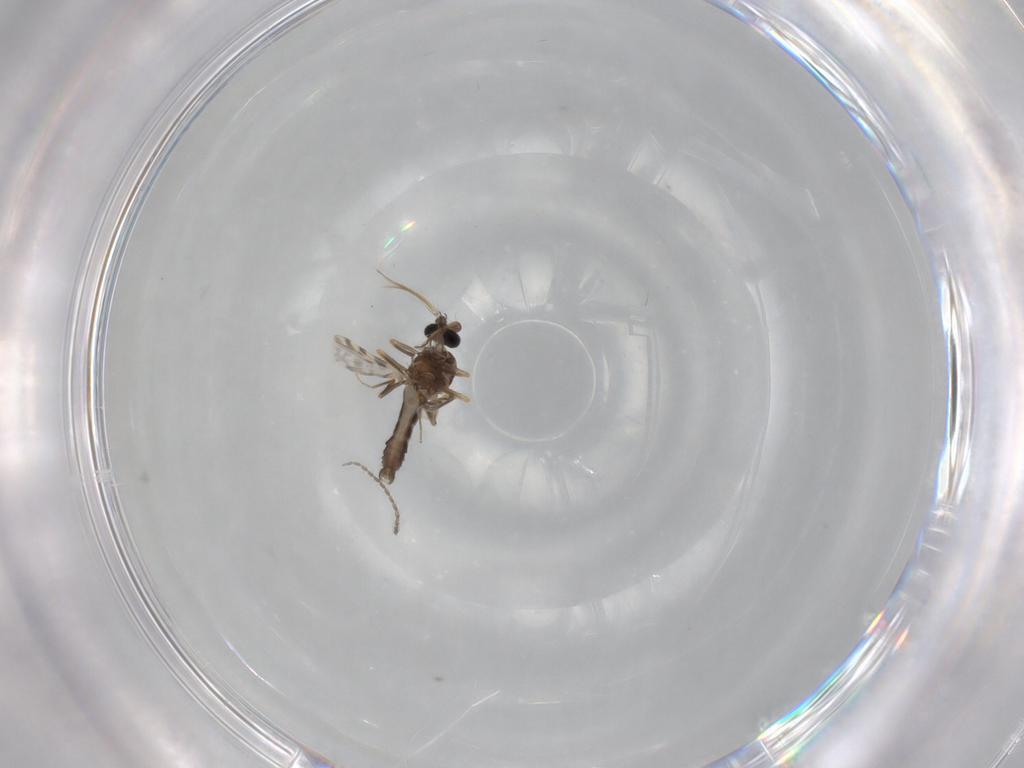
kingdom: Animalia
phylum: Arthropoda
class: Insecta
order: Diptera
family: Ceratopogonidae
